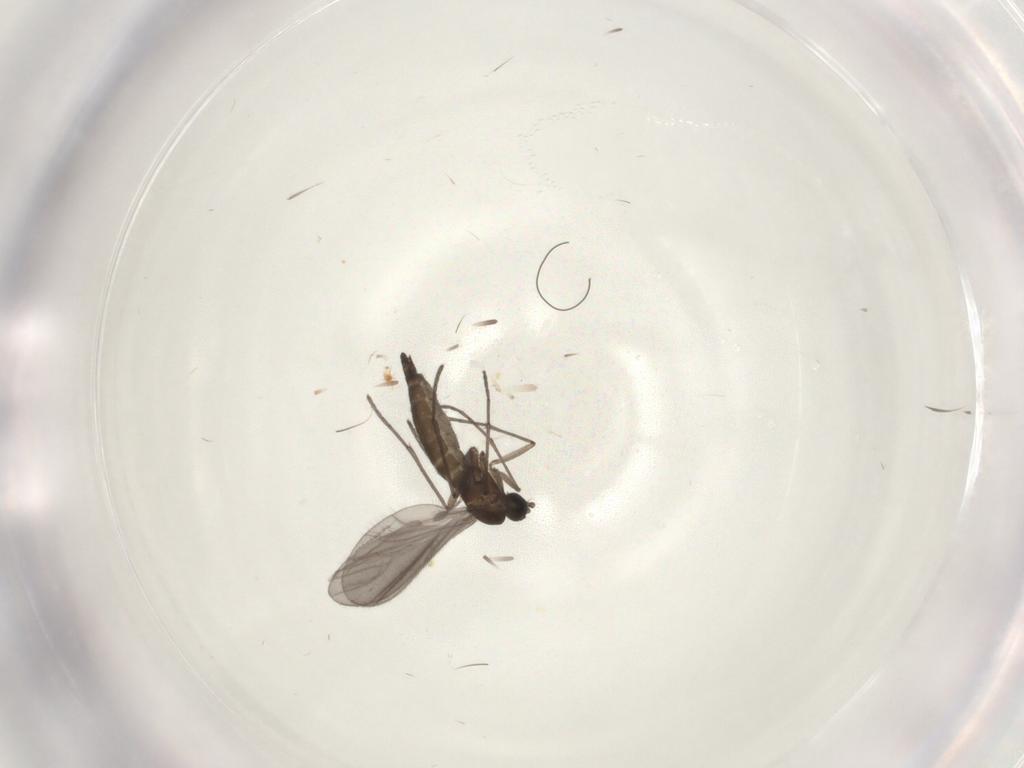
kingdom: Animalia
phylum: Arthropoda
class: Insecta
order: Diptera
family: Sciaridae
